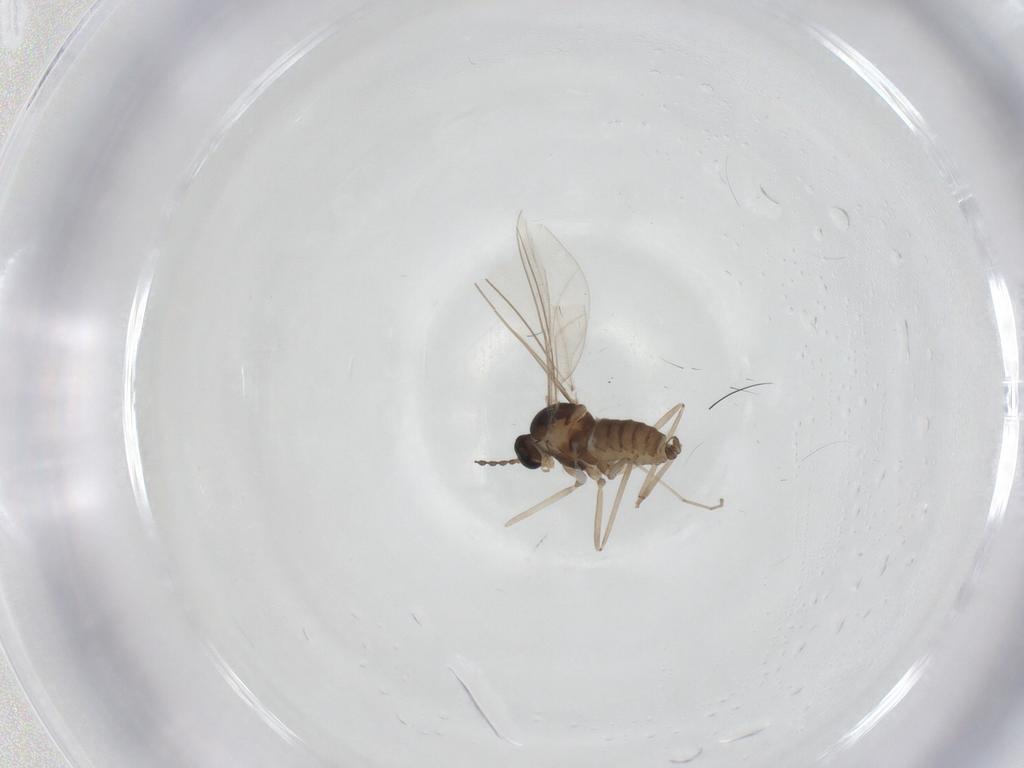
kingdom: Animalia
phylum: Arthropoda
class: Insecta
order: Diptera
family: Cecidomyiidae
